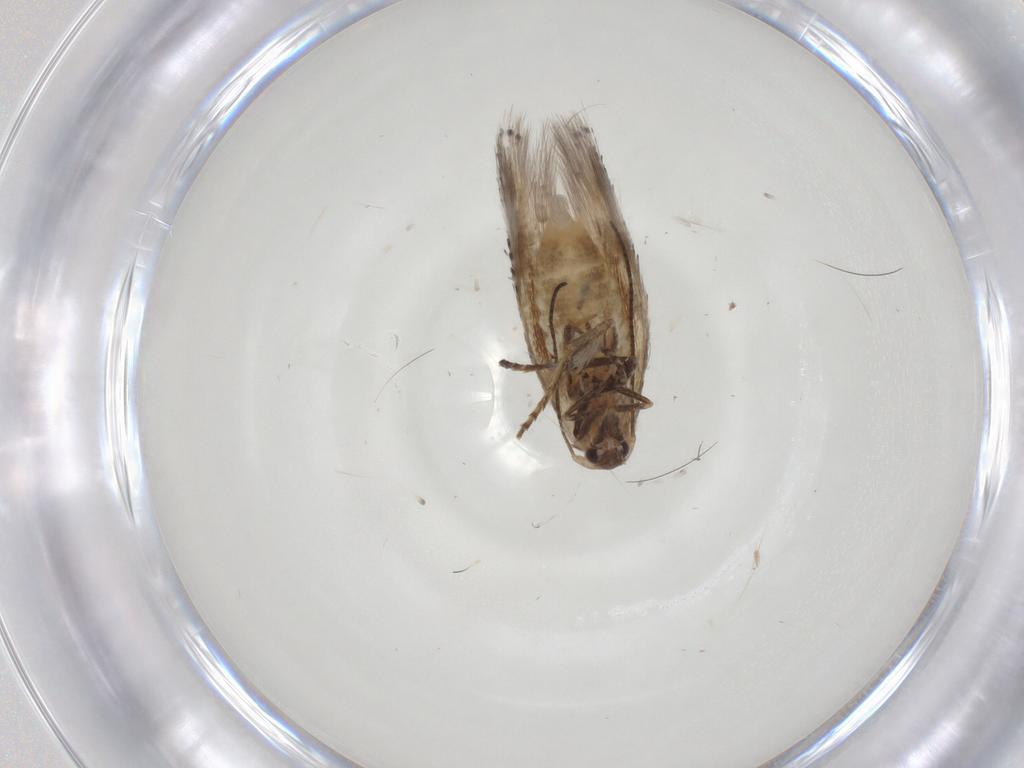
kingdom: Animalia
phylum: Arthropoda
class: Insecta
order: Lepidoptera
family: Bucculatricidae
